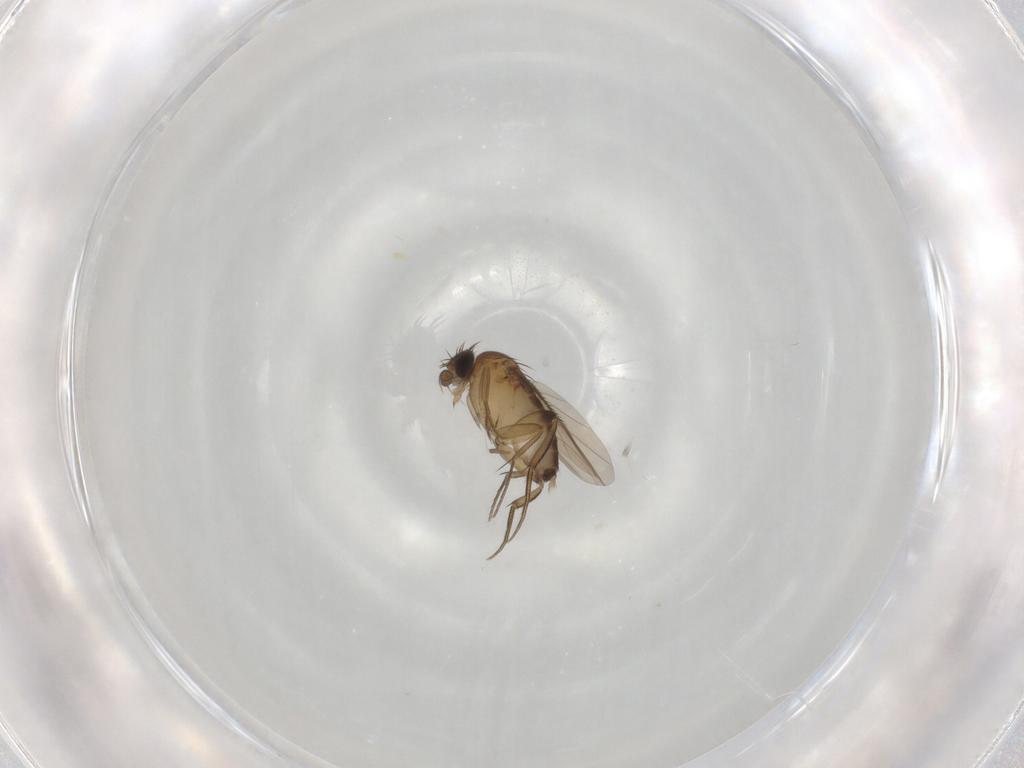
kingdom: Animalia
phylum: Arthropoda
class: Insecta
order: Diptera
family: Phoridae
